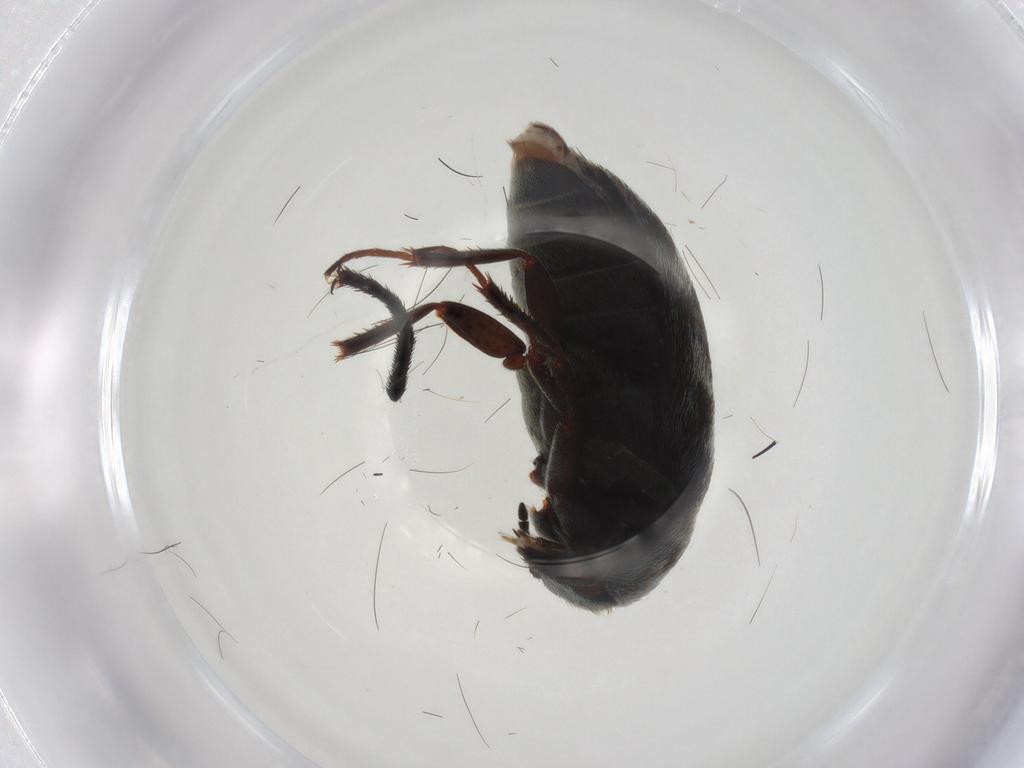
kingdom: Animalia
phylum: Arthropoda
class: Insecta
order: Coleoptera
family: Dermestidae
